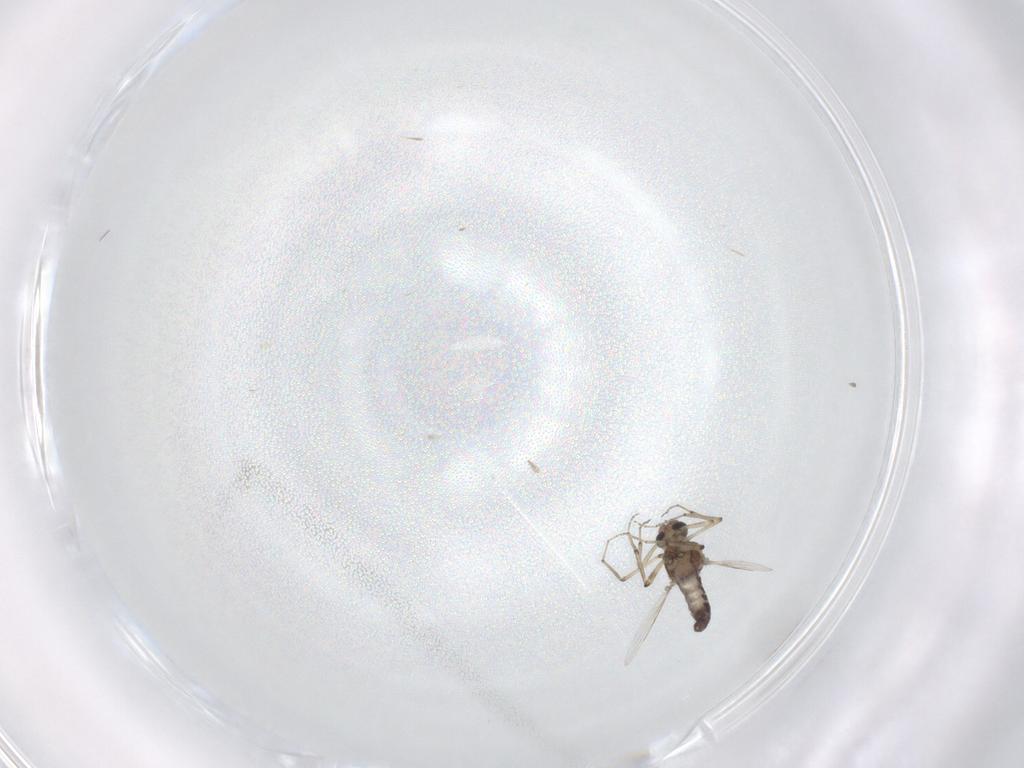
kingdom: Animalia
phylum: Arthropoda
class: Insecta
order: Diptera
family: Ceratopogonidae
